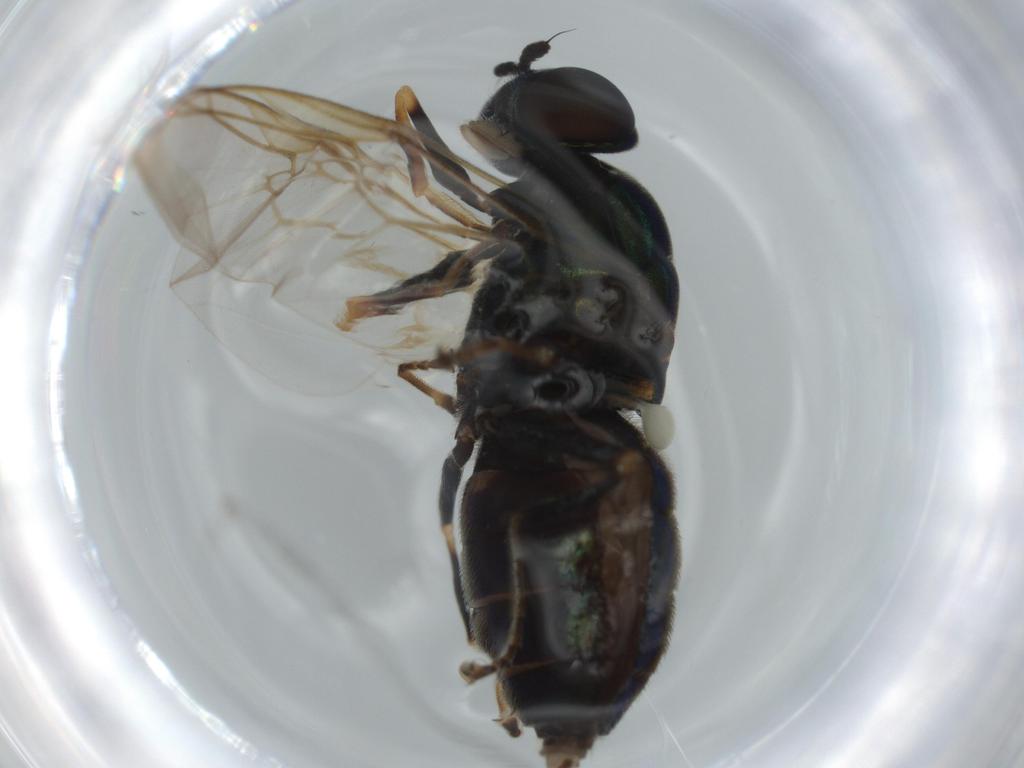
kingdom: Animalia
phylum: Arthropoda
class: Insecta
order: Diptera
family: Stratiomyidae
